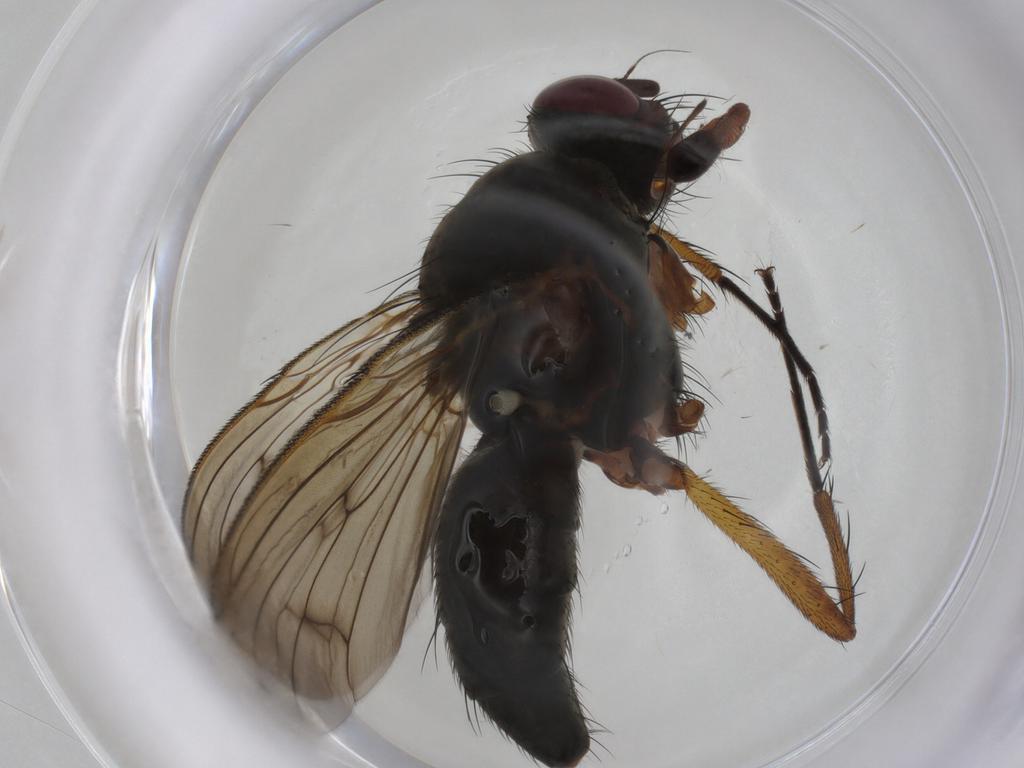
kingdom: Animalia
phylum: Arthropoda
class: Insecta
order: Diptera
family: Anthomyiidae
